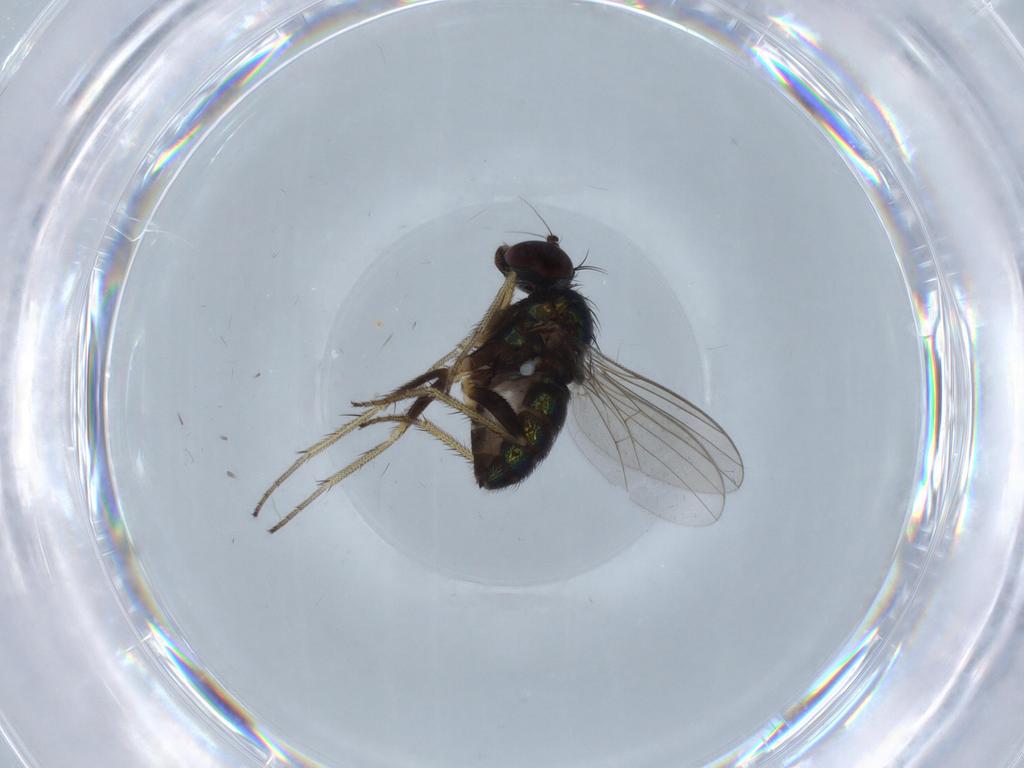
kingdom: Animalia
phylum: Arthropoda
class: Insecta
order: Diptera
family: Dolichopodidae
